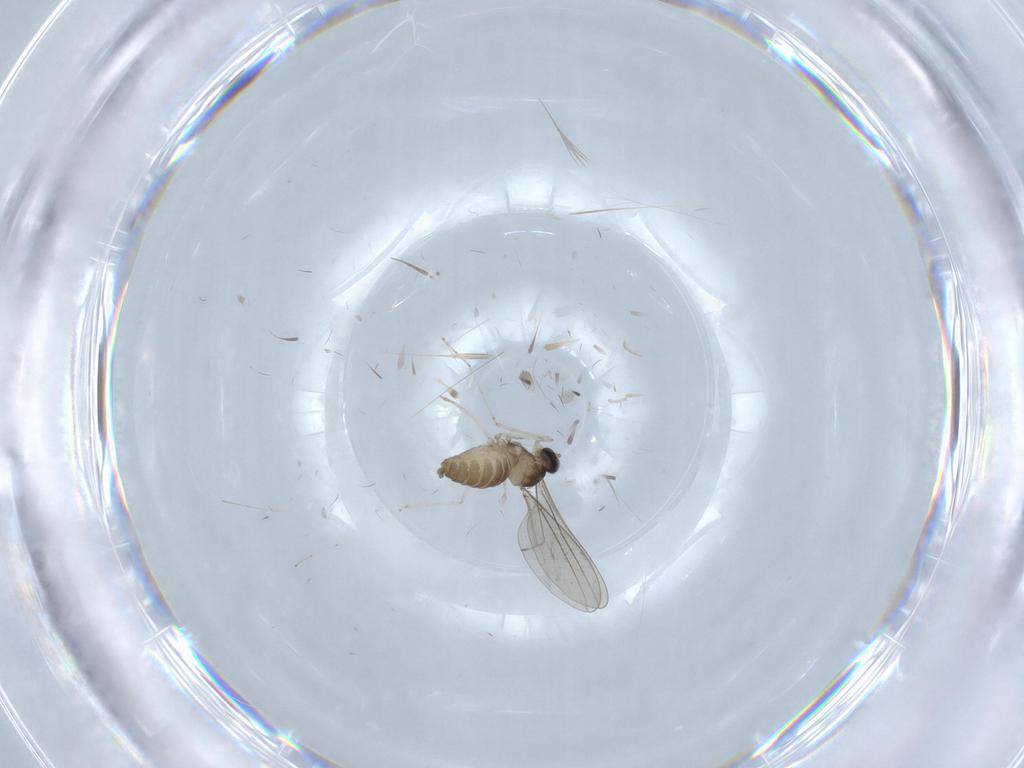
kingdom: Animalia
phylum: Arthropoda
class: Insecta
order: Diptera
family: Cecidomyiidae
